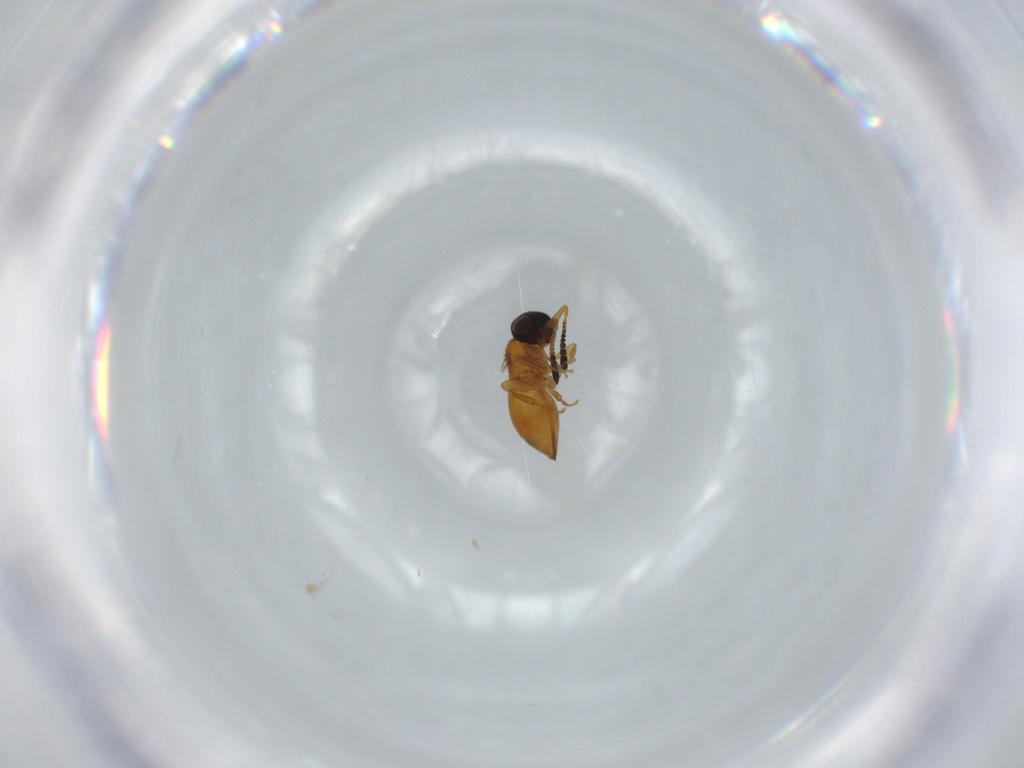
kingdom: Animalia
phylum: Arthropoda
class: Insecta
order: Hymenoptera
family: Ceraphronidae
